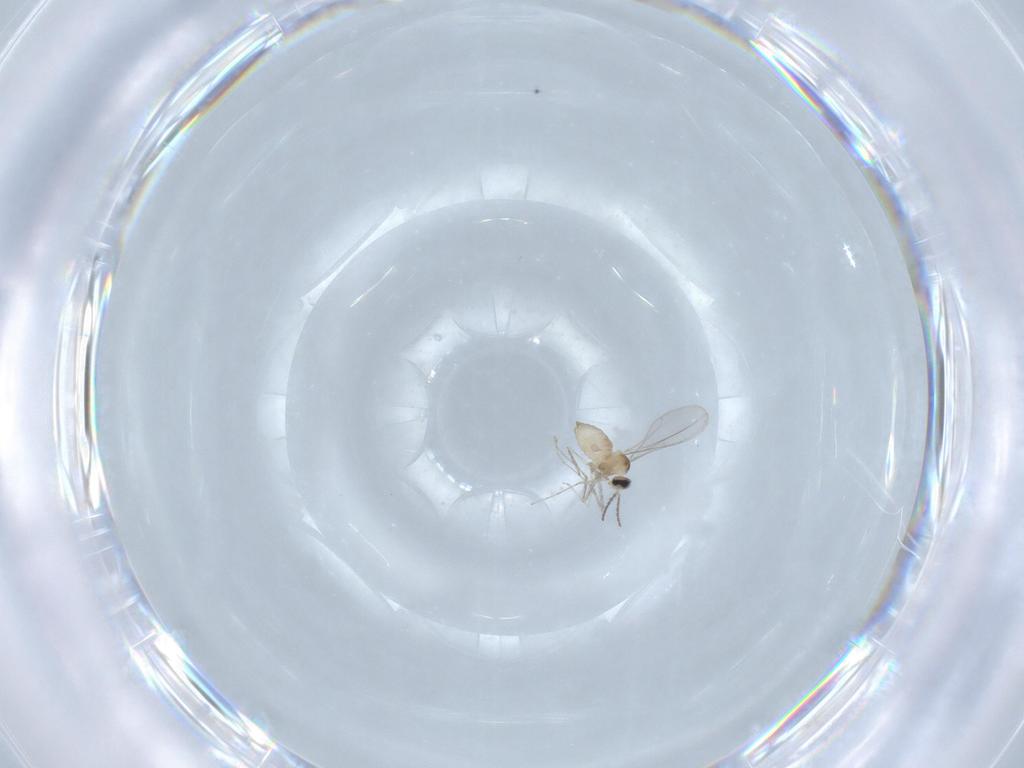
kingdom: Animalia
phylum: Arthropoda
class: Insecta
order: Diptera
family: Cecidomyiidae
